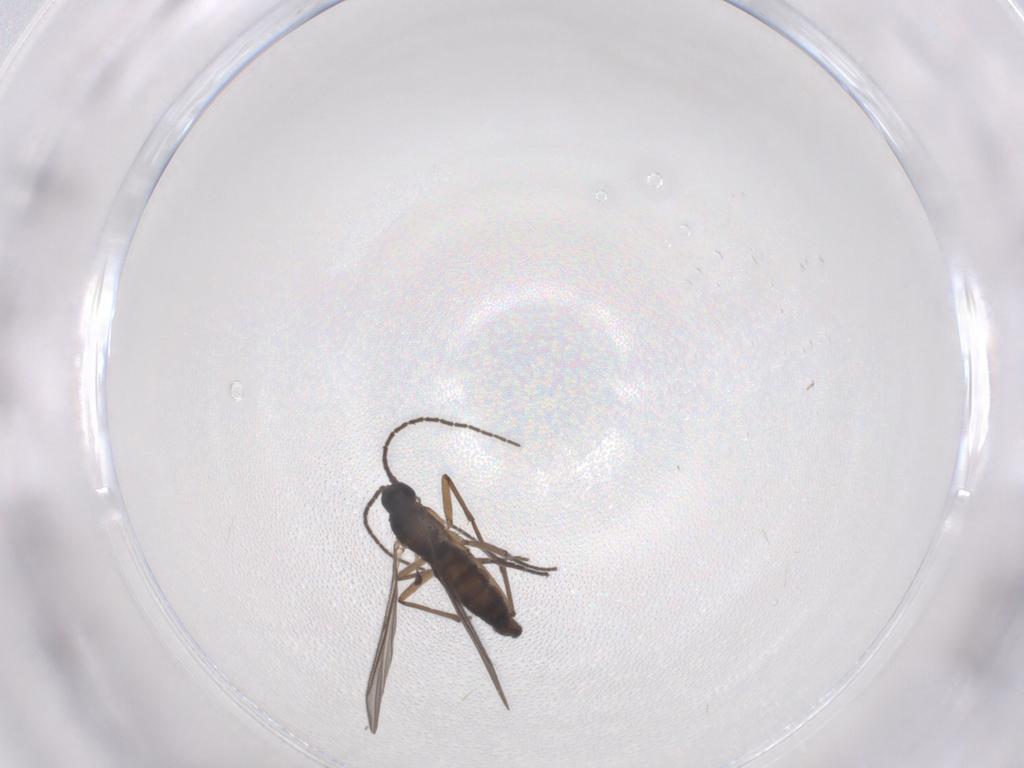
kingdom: Animalia
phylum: Arthropoda
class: Insecta
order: Diptera
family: Sciaridae
